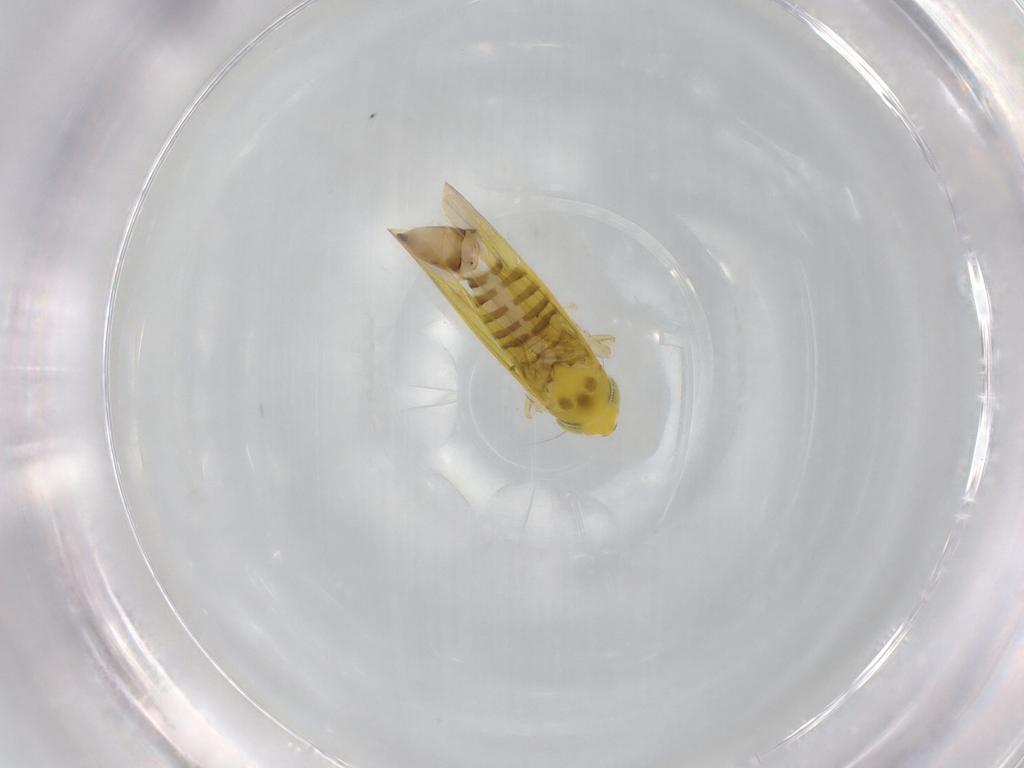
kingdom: Animalia
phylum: Arthropoda
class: Insecta
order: Hemiptera
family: Cicadellidae
